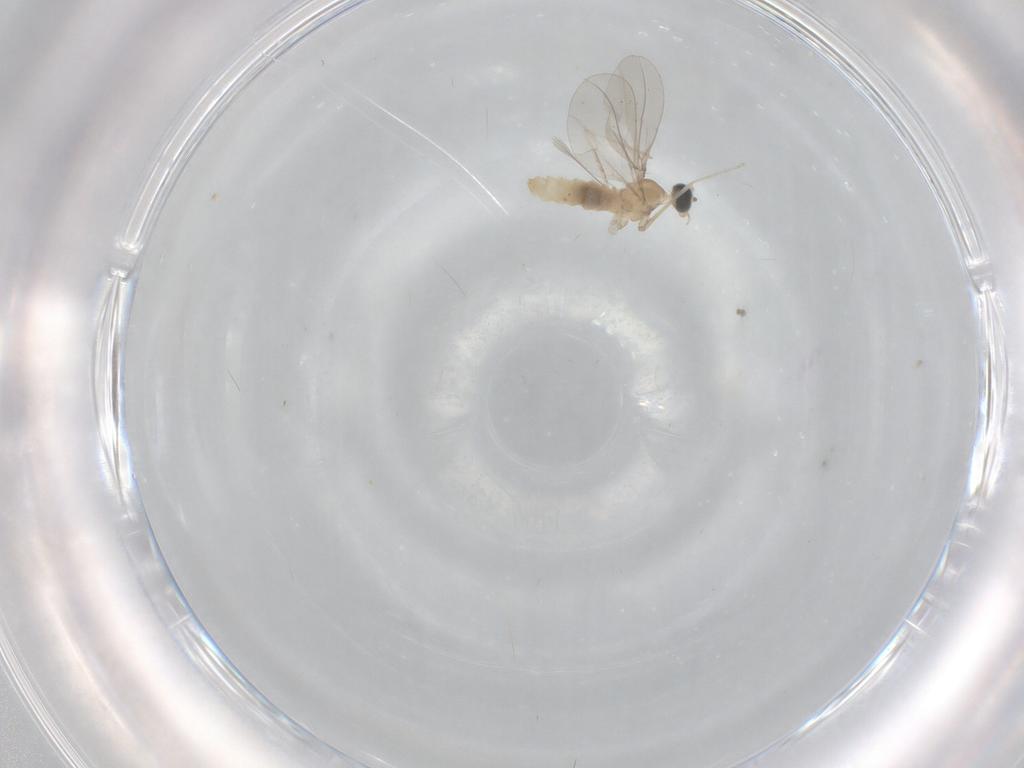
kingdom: Animalia
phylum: Arthropoda
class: Insecta
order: Diptera
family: Cecidomyiidae
